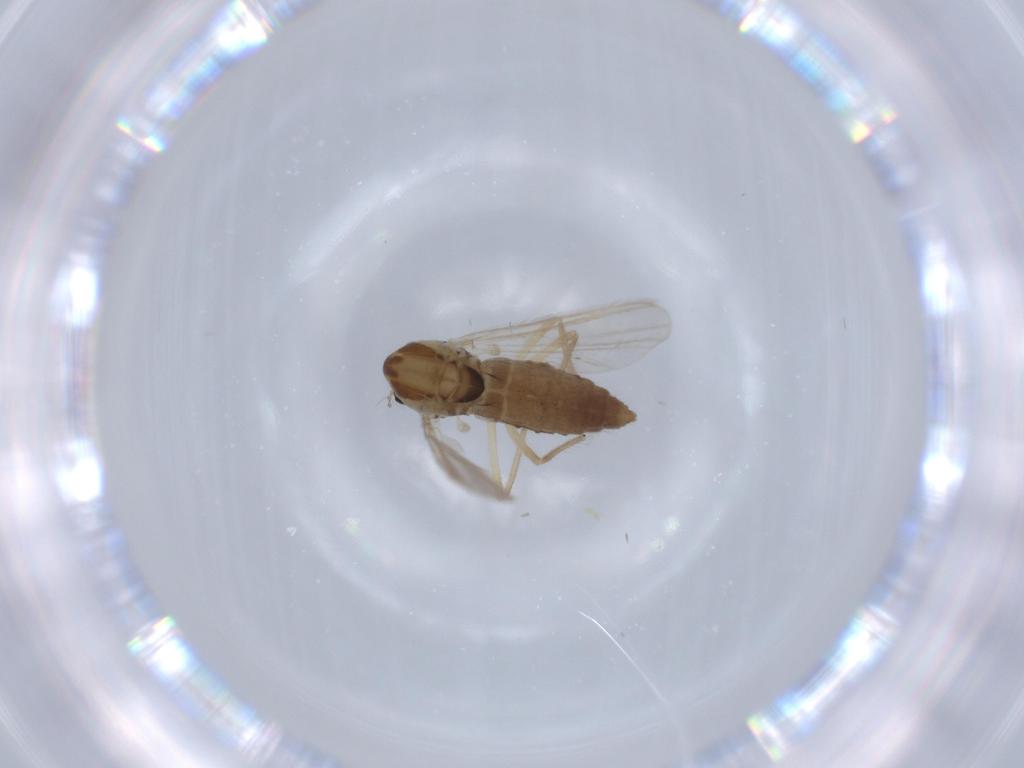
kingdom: Animalia
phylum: Arthropoda
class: Insecta
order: Diptera
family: Chironomidae
